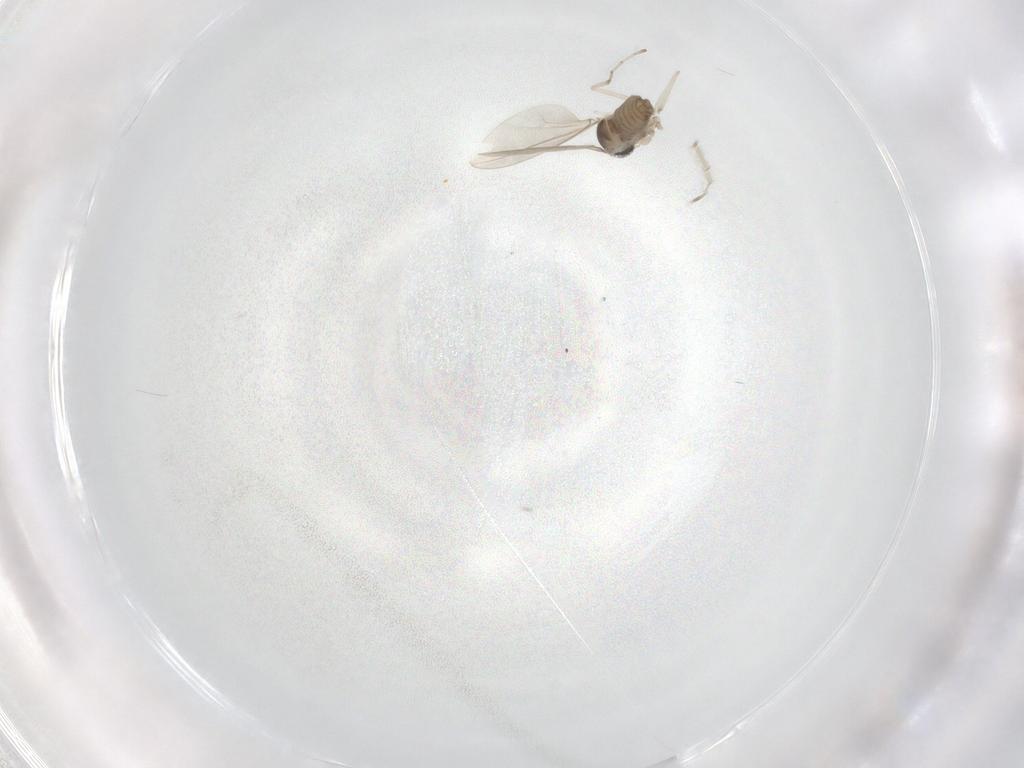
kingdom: Animalia
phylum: Arthropoda
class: Insecta
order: Diptera
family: Cecidomyiidae
